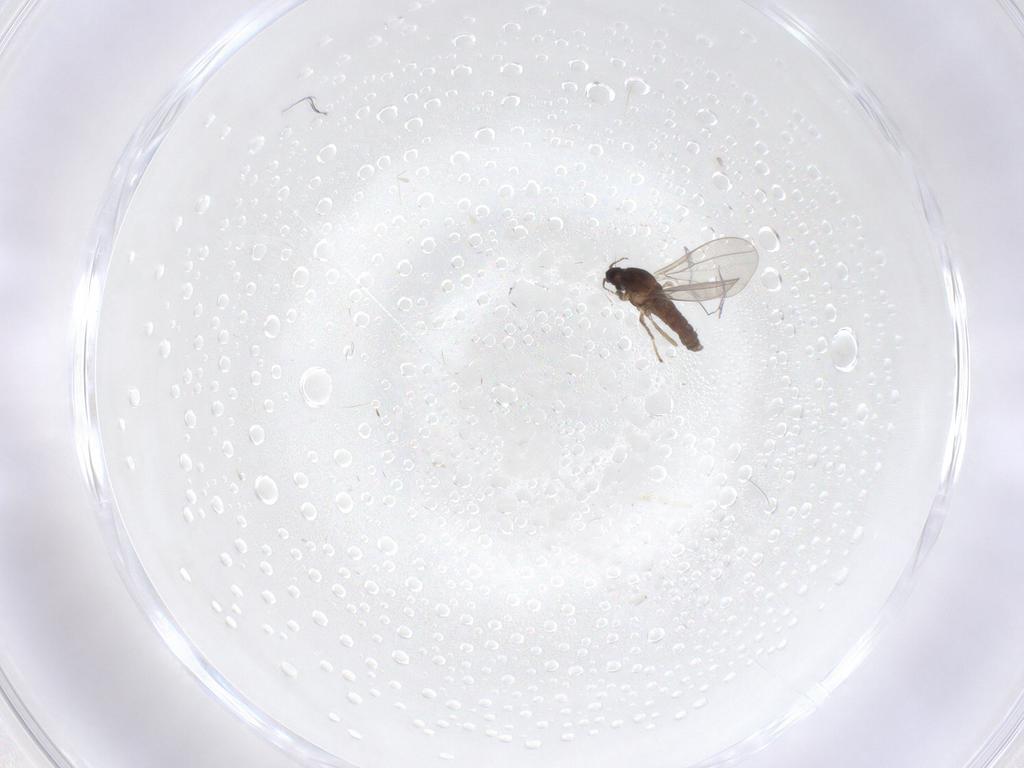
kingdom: Animalia
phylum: Arthropoda
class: Insecta
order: Diptera
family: Cecidomyiidae
